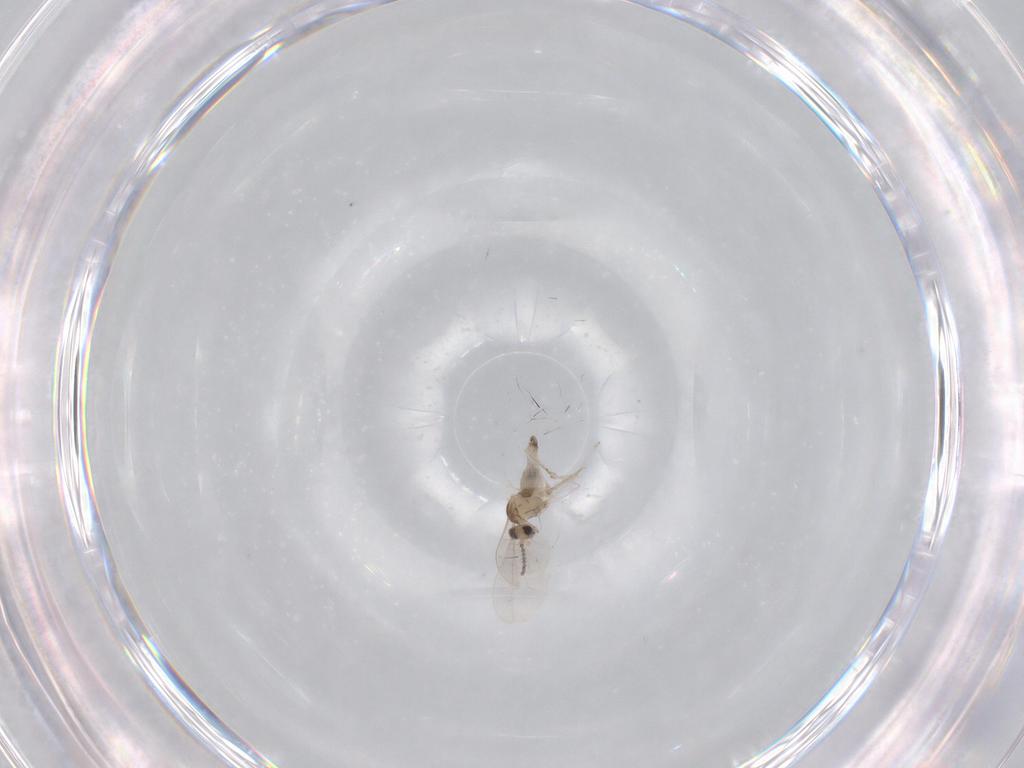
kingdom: Animalia
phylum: Arthropoda
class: Insecta
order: Diptera
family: Cecidomyiidae
